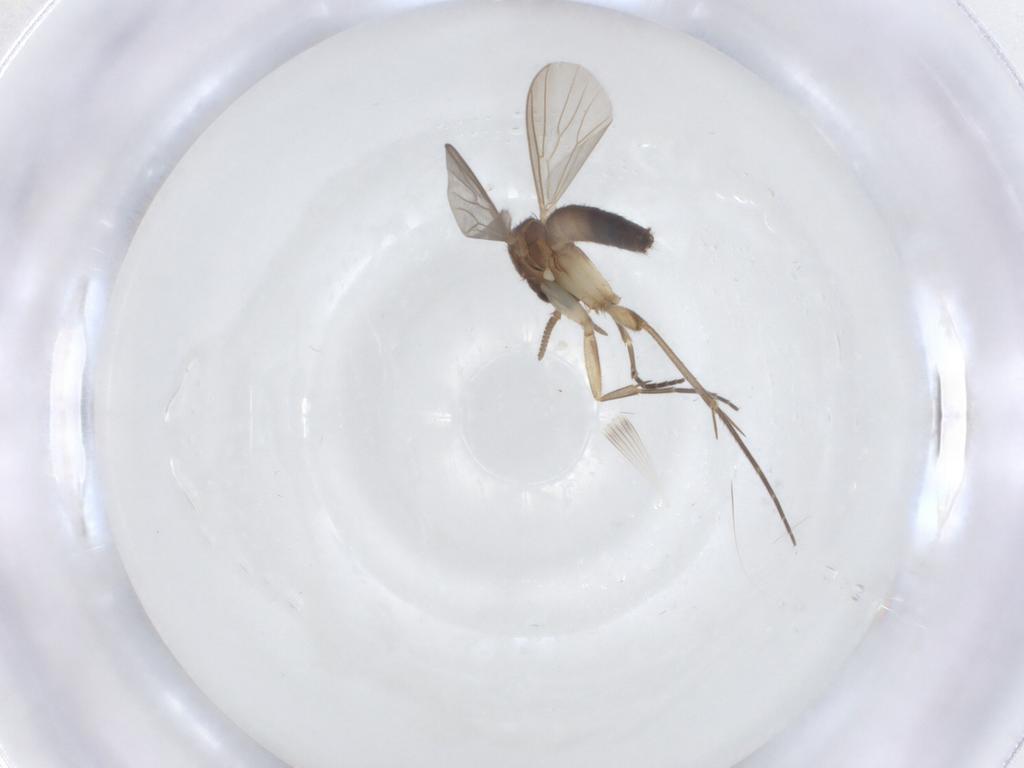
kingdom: Animalia
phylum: Arthropoda
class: Insecta
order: Diptera
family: Mycetophilidae
